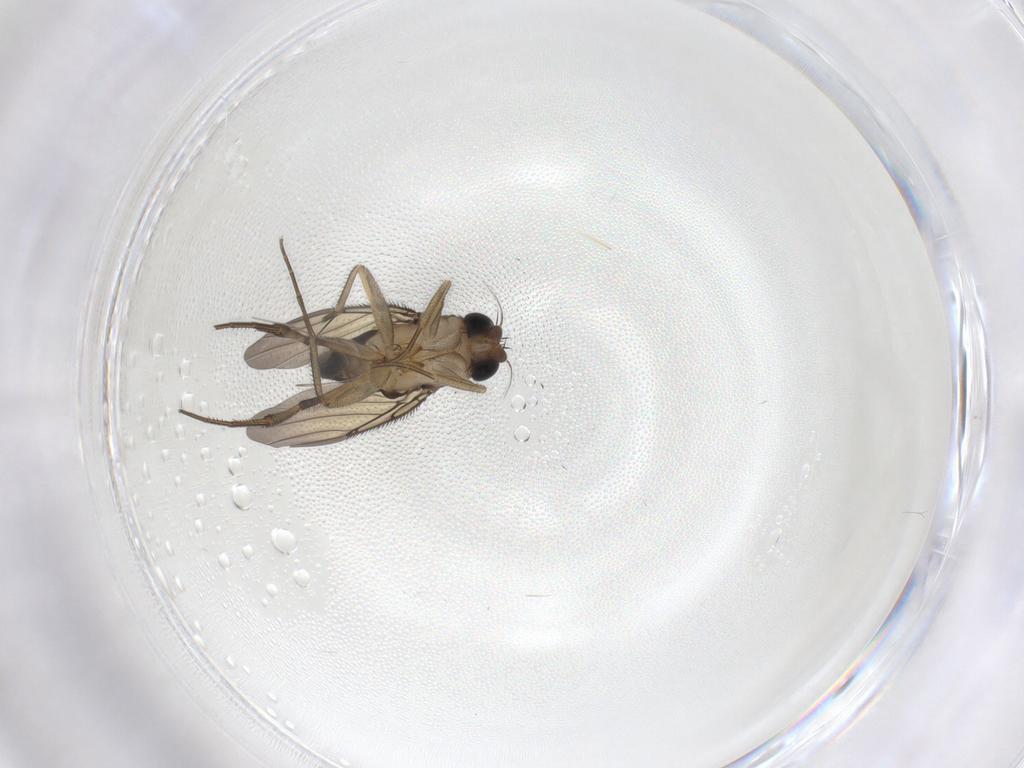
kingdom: Animalia
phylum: Arthropoda
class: Insecta
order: Diptera
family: Phoridae
